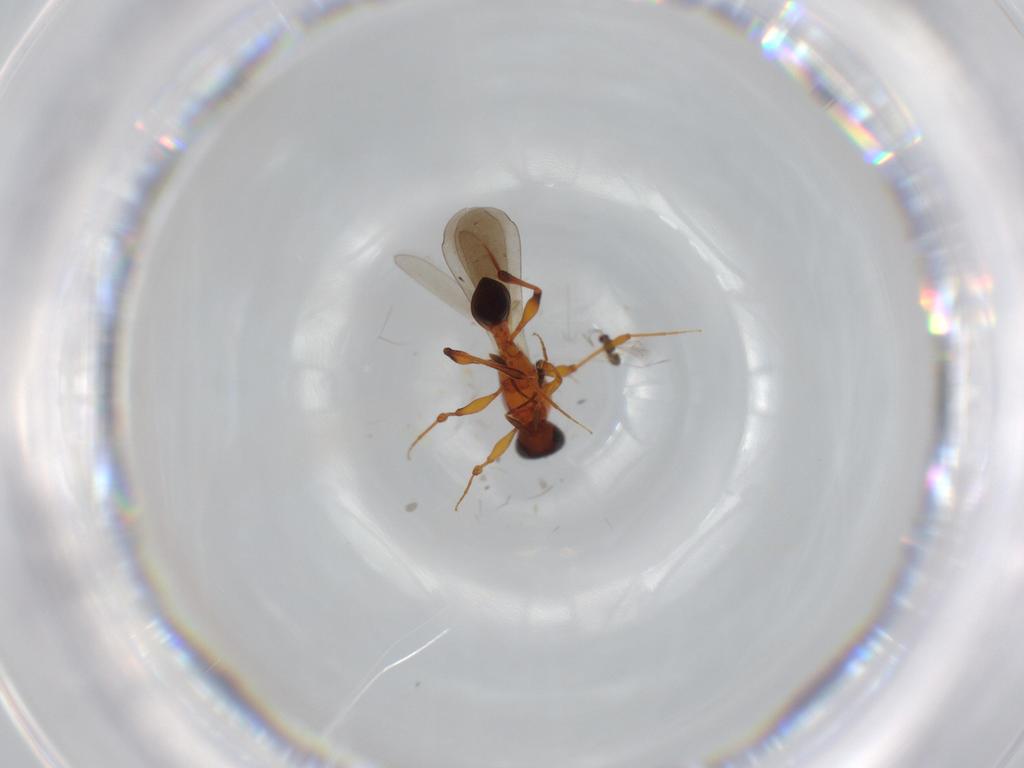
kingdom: Animalia
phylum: Arthropoda
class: Insecta
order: Hymenoptera
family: Platygastridae
